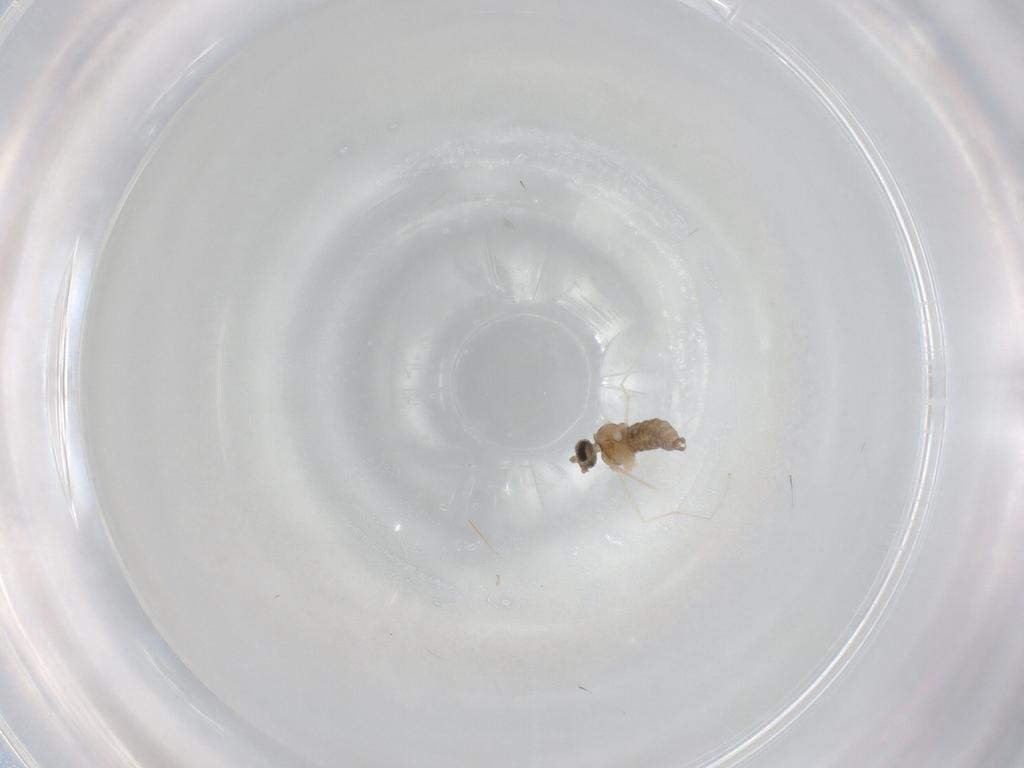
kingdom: Animalia
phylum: Arthropoda
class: Insecta
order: Diptera
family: Cecidomyiidae
